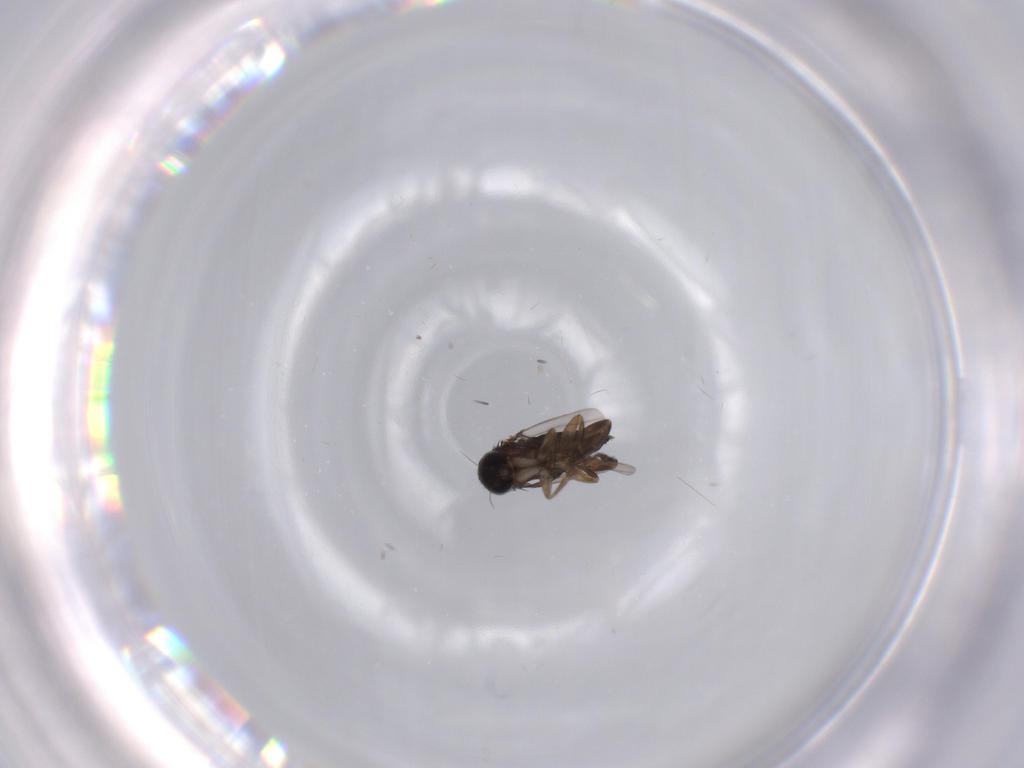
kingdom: Animalia
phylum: Arthropoda
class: Insecta
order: Diptera
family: Phoridae
